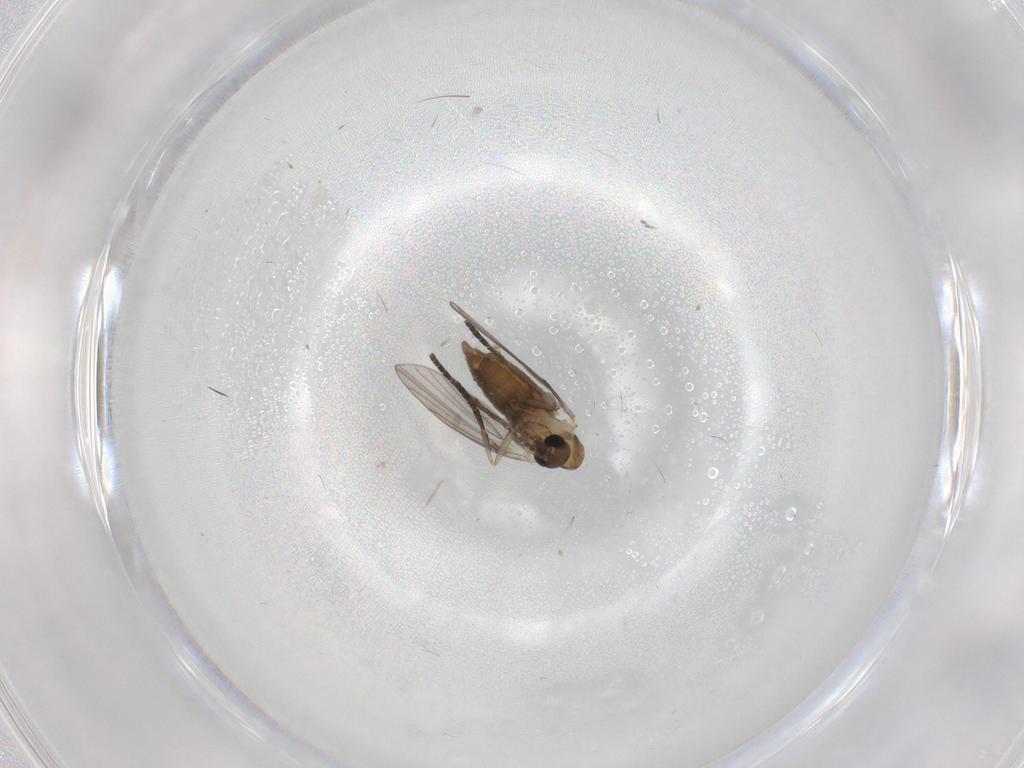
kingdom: Animalia
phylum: Arthropoda
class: Insecta
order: Diptera
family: Psychodidae
